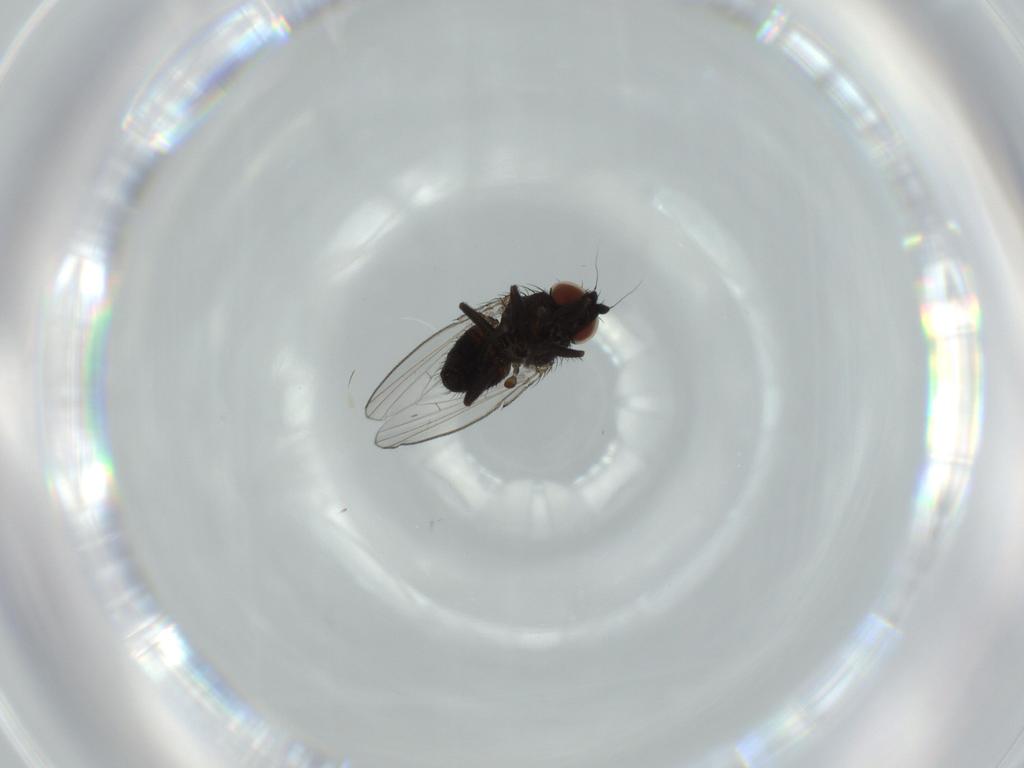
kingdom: Animalia
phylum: Arthropoda
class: Insecta
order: Diptera
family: Milichiidae
